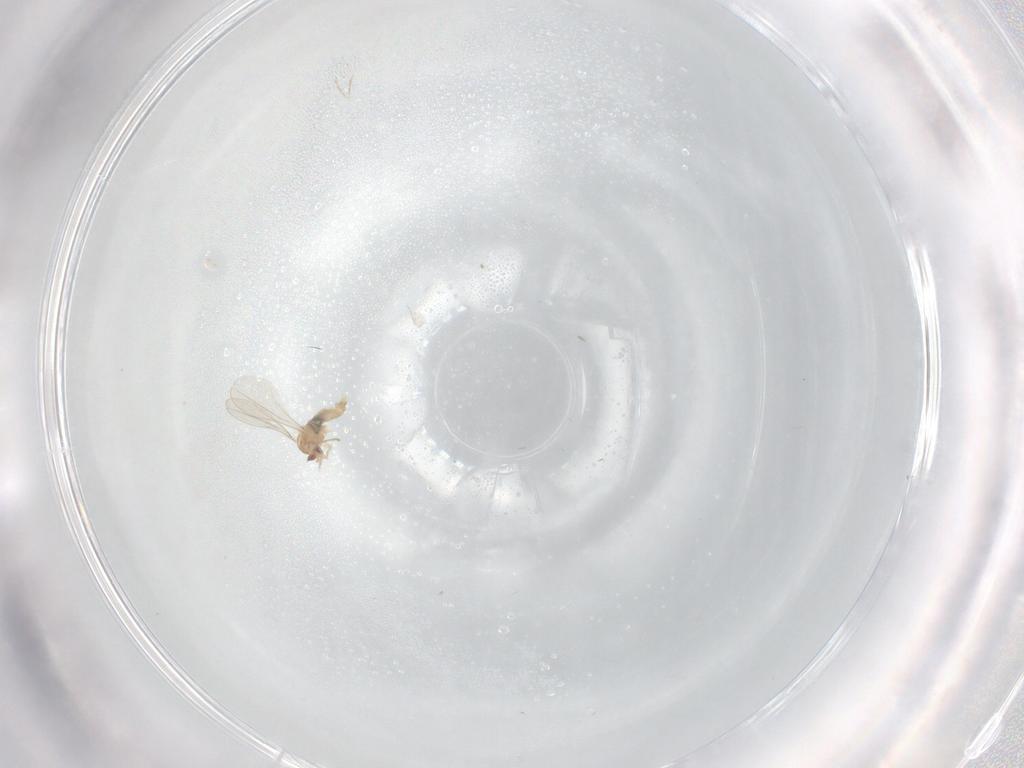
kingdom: Animalia
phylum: Arthropoda
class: Insecta
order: Diptera
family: Cecidomyiidae
